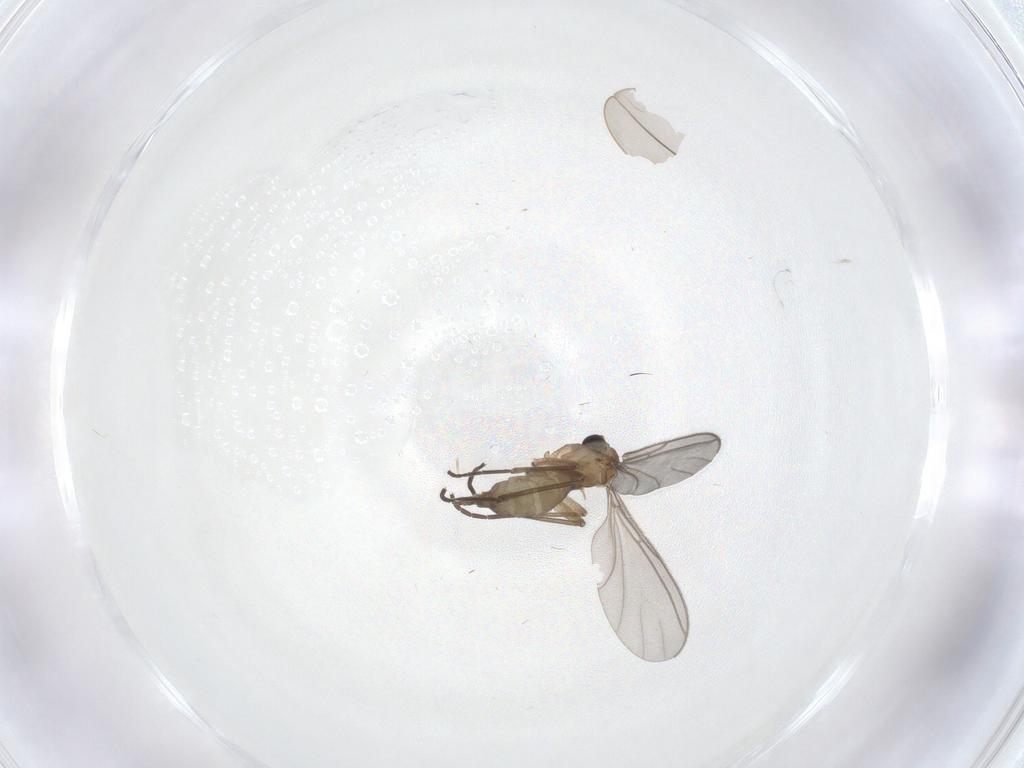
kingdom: Animalia
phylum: Arthropoda
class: Insecta
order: Diptera
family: Sciaridae
